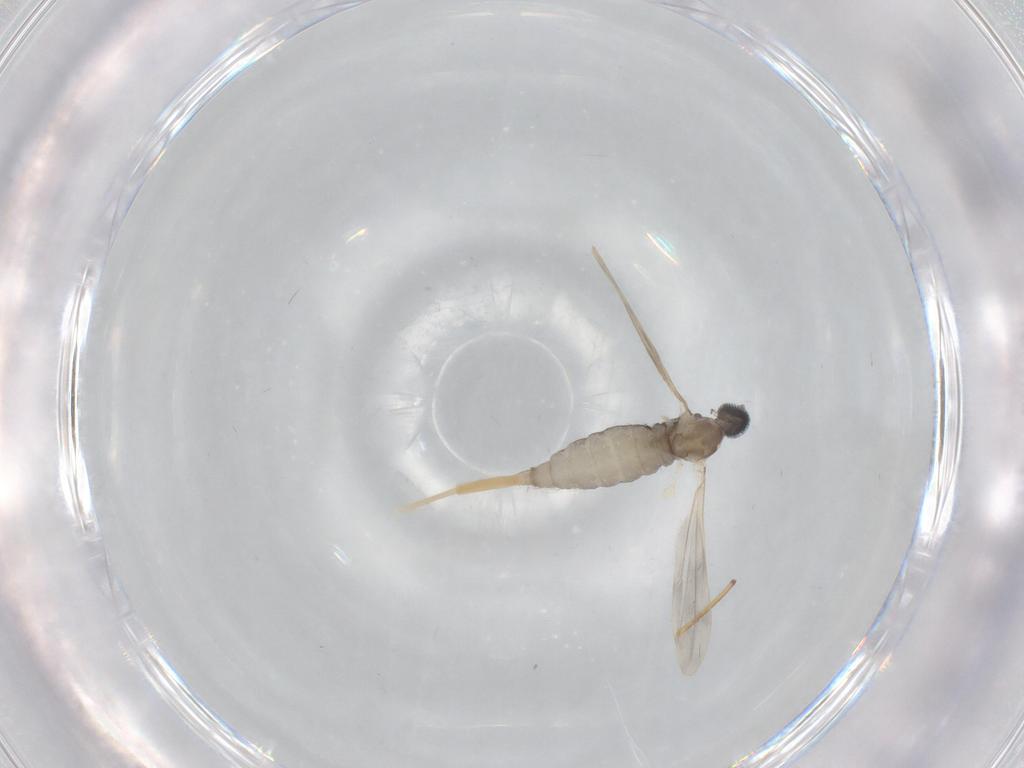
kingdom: Animalia
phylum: Arthropoda
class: Insecta
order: Diptera
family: Cecidomyiidae
